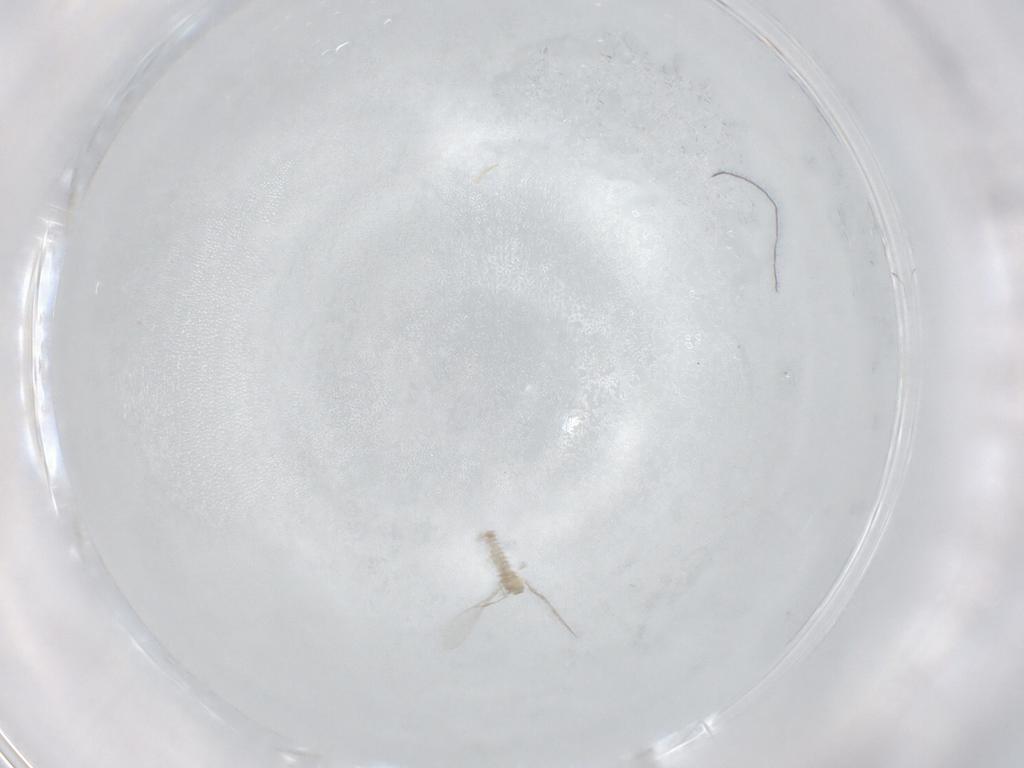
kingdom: Animalia
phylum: Arthropoda
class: Insecta
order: Diptera
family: Cecidomyiidae
